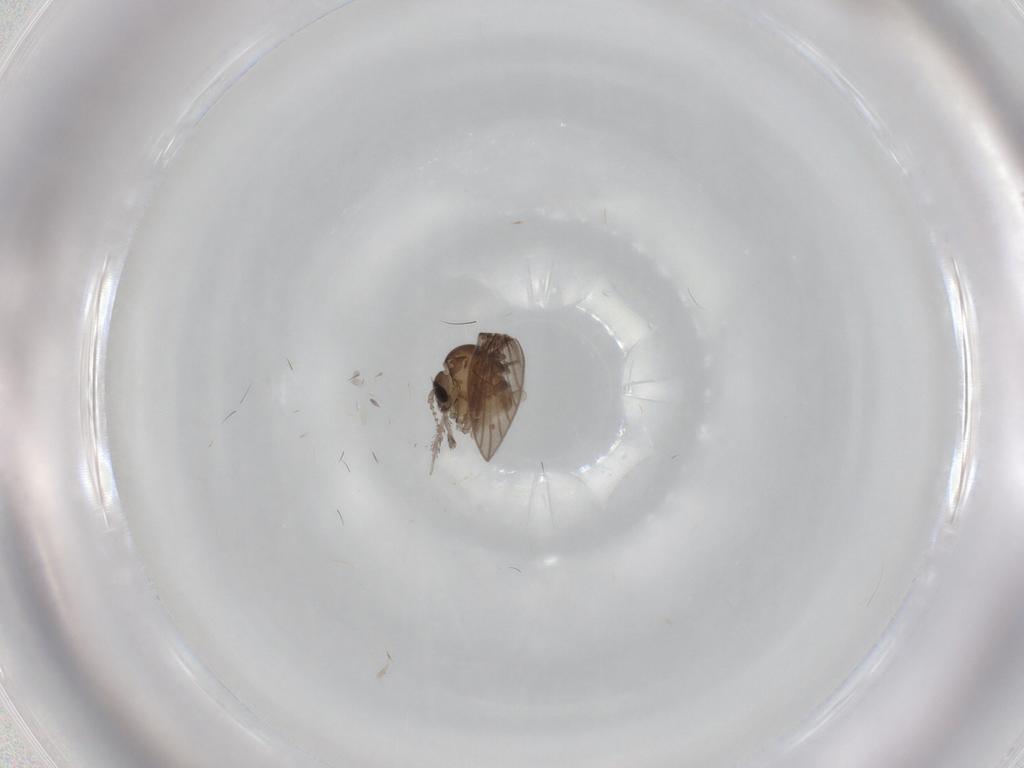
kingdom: Animalia
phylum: Arthropoda
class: Insecta
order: Diptera
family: Psychodidae
